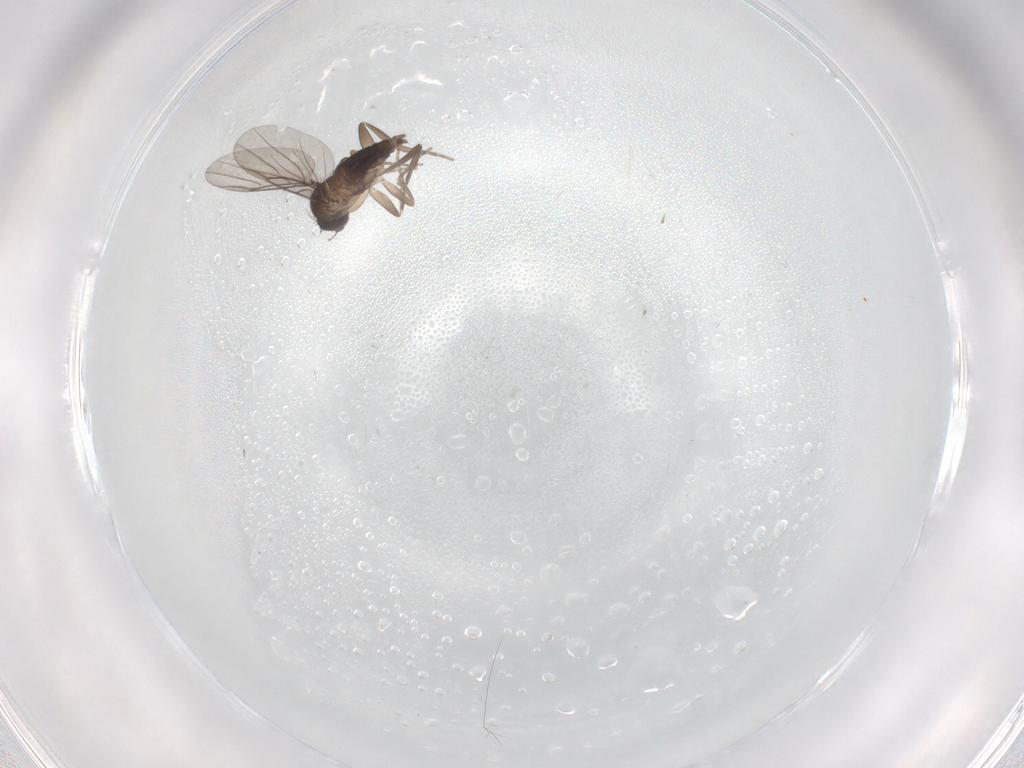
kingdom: Animalia
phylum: Arthropoda
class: Insecta
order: Diptera
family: Phoridae
